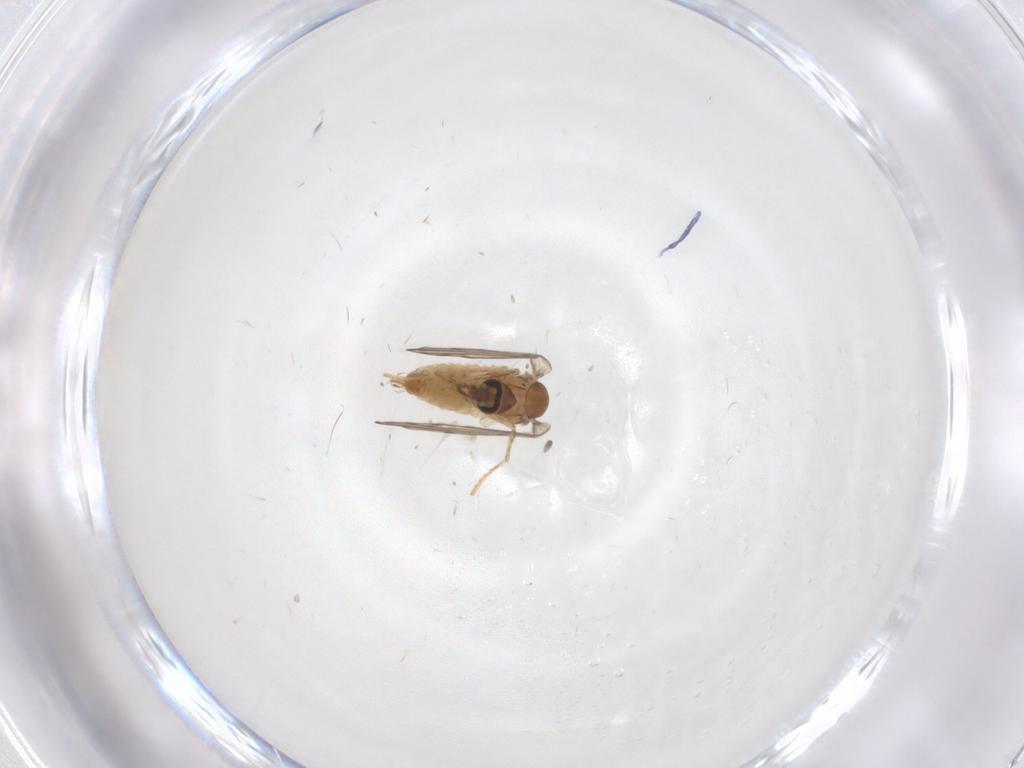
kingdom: Animalia
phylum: Arthropoda
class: Insecta
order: Diptera
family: Psychodidae
